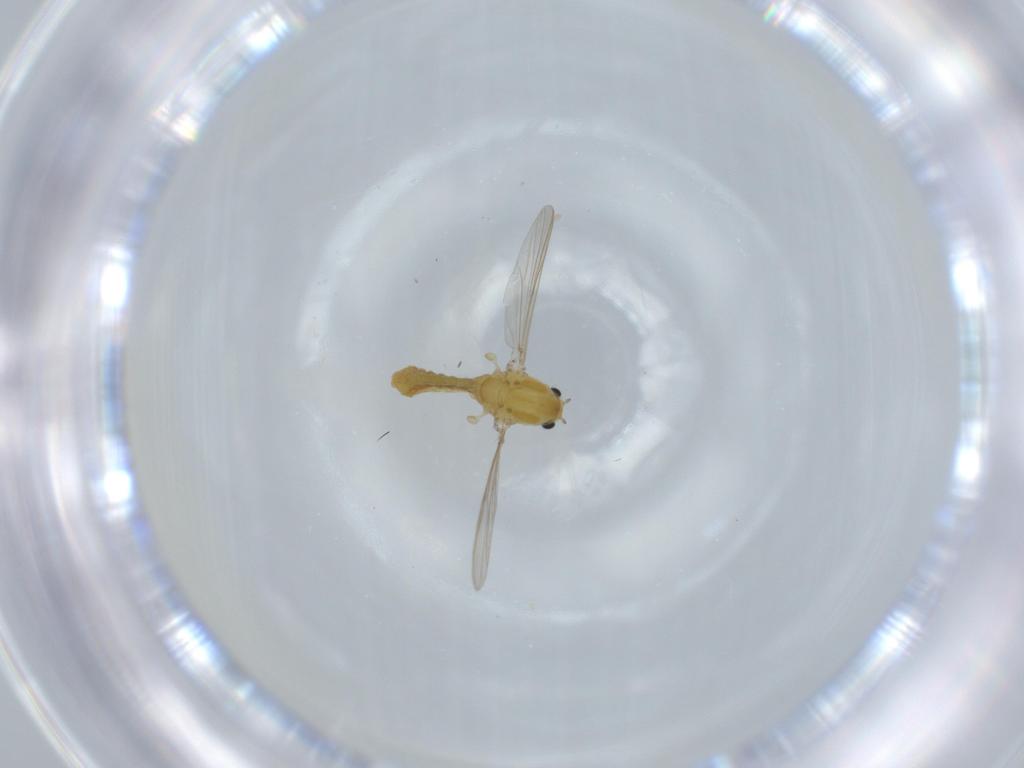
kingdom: Animalia
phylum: Arthropoda
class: Insecta
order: Diptera
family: Chironomidae
